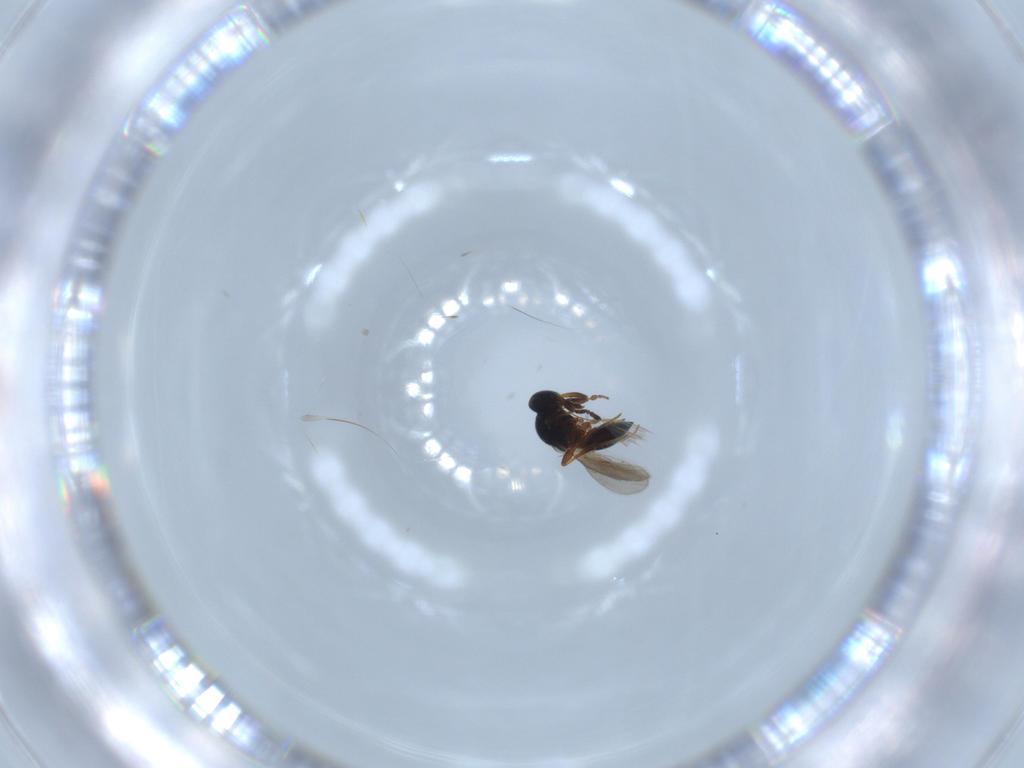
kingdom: Animalia
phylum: Arthropoda
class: Insecta
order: Hymenoptera
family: Platygastridae
